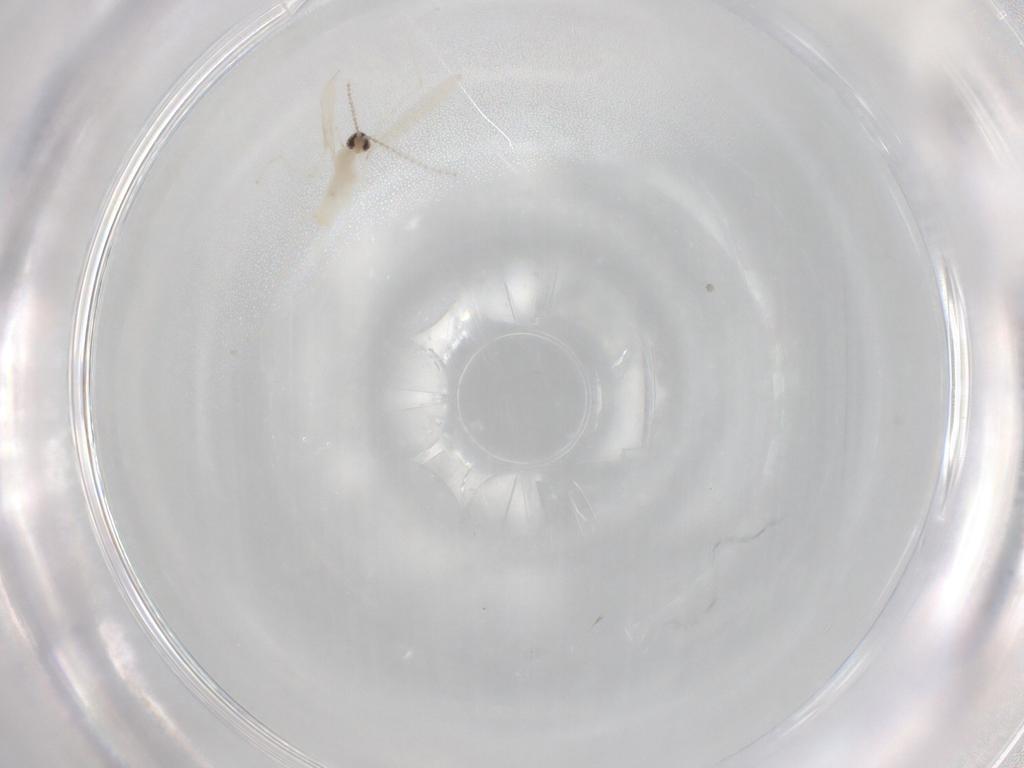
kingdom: Animalia
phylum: Arthropoda
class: Insecta
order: Diptera
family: Cecidomyiidae
